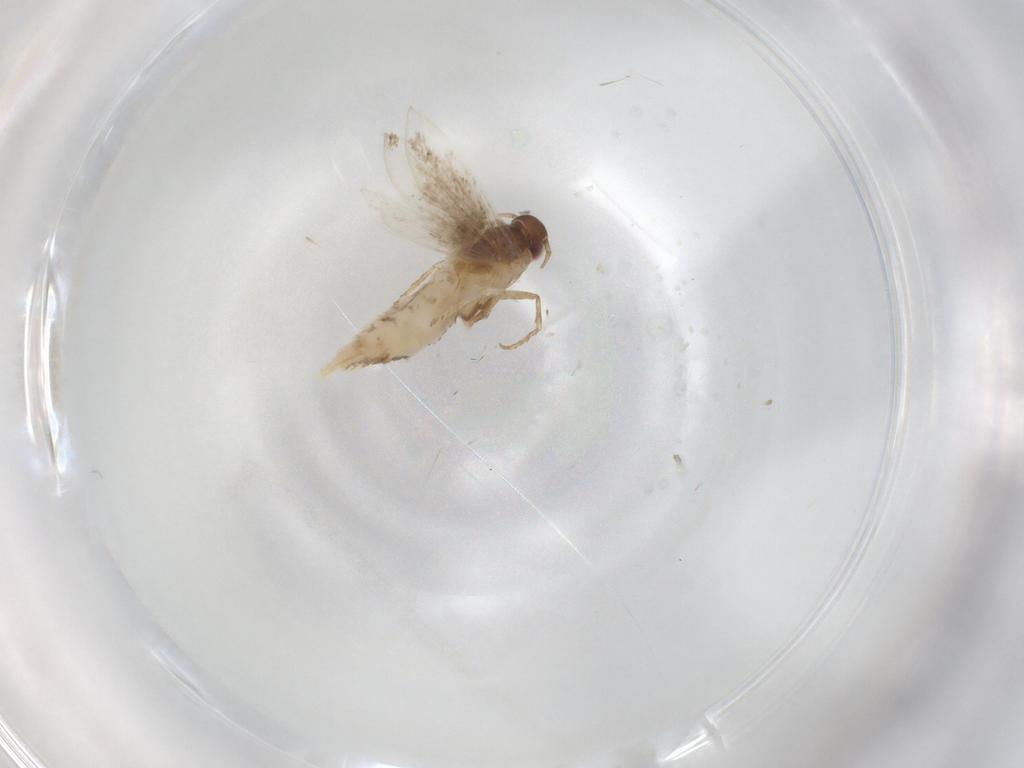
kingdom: Animalia
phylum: Arthropoda
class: Insecta
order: Lepidoptera
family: Gelechiidae
